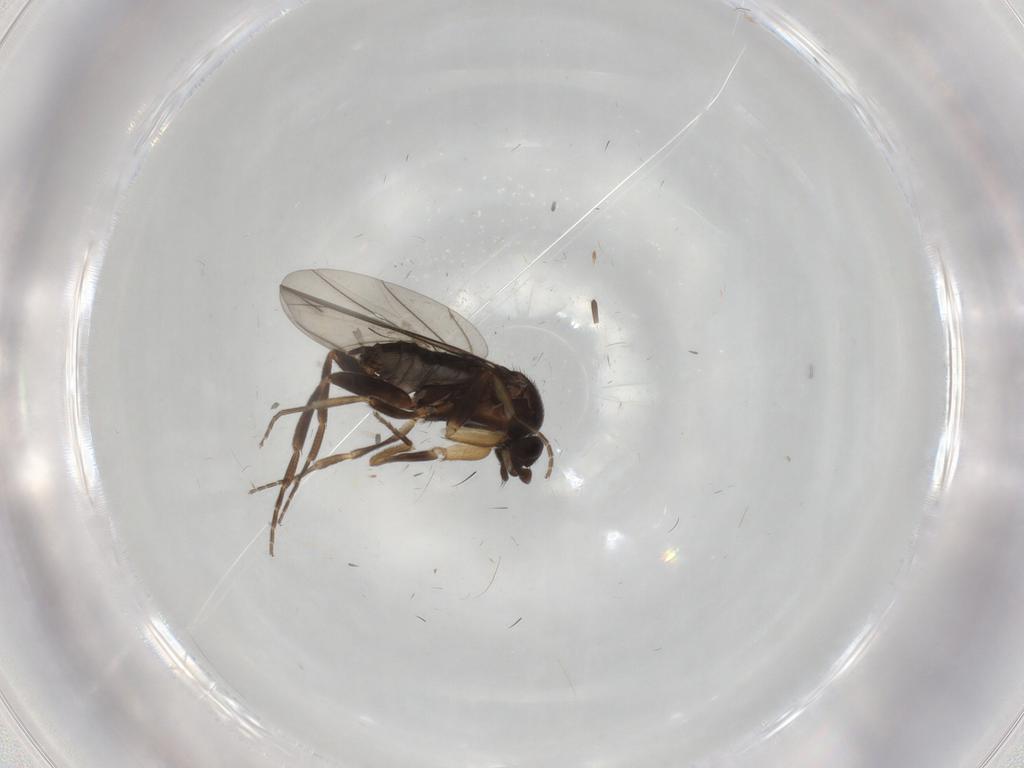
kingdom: Animalia
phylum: Arthropoda
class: Insecta
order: Diptera
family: Phoridae
